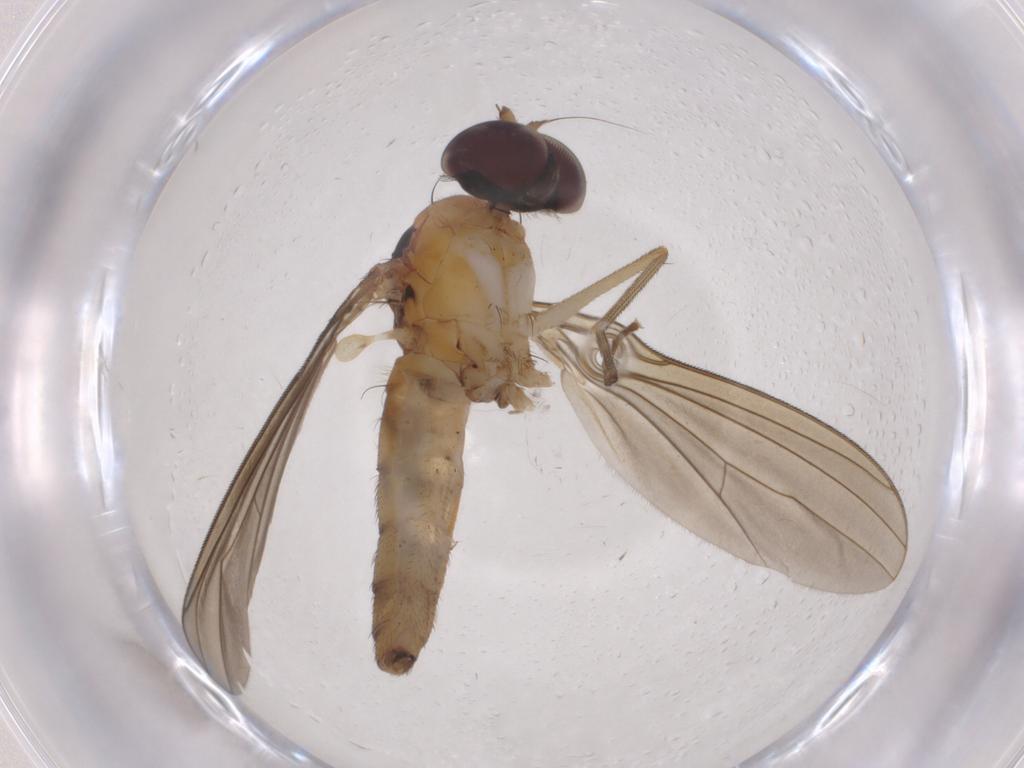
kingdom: Animalia
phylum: Arthropoda
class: Insecta
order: Diptera
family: Dolichopodidae
